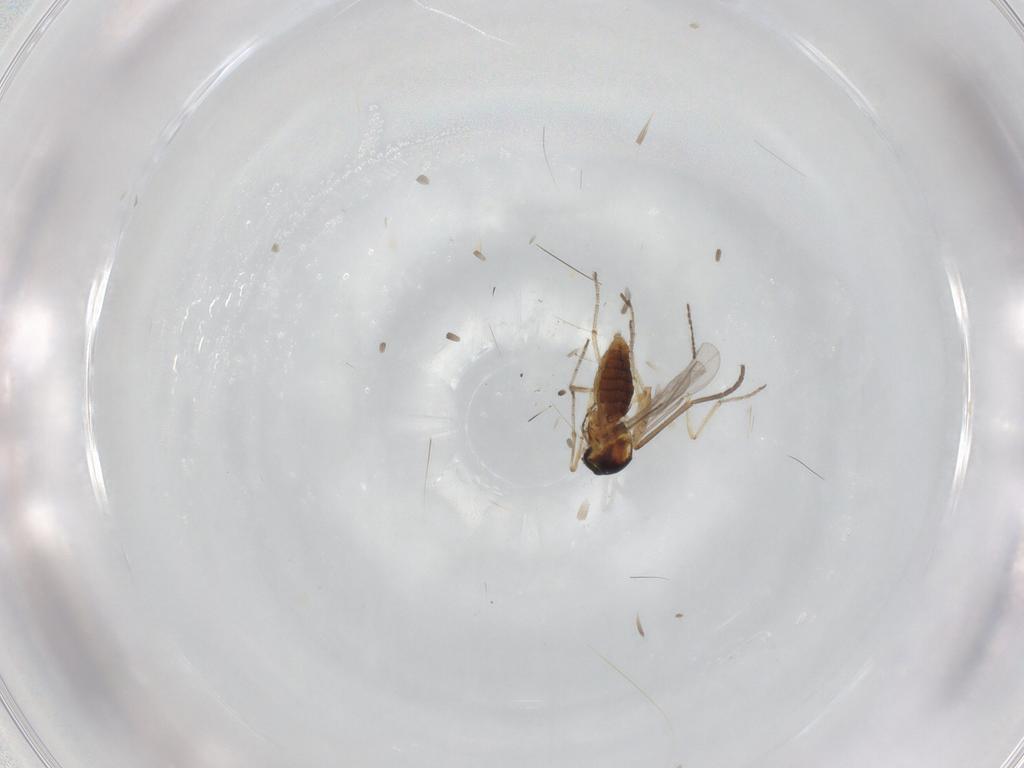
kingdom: Animalia
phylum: Arthropoda
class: Insecta
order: Diptera
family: Ceratopogonidae
